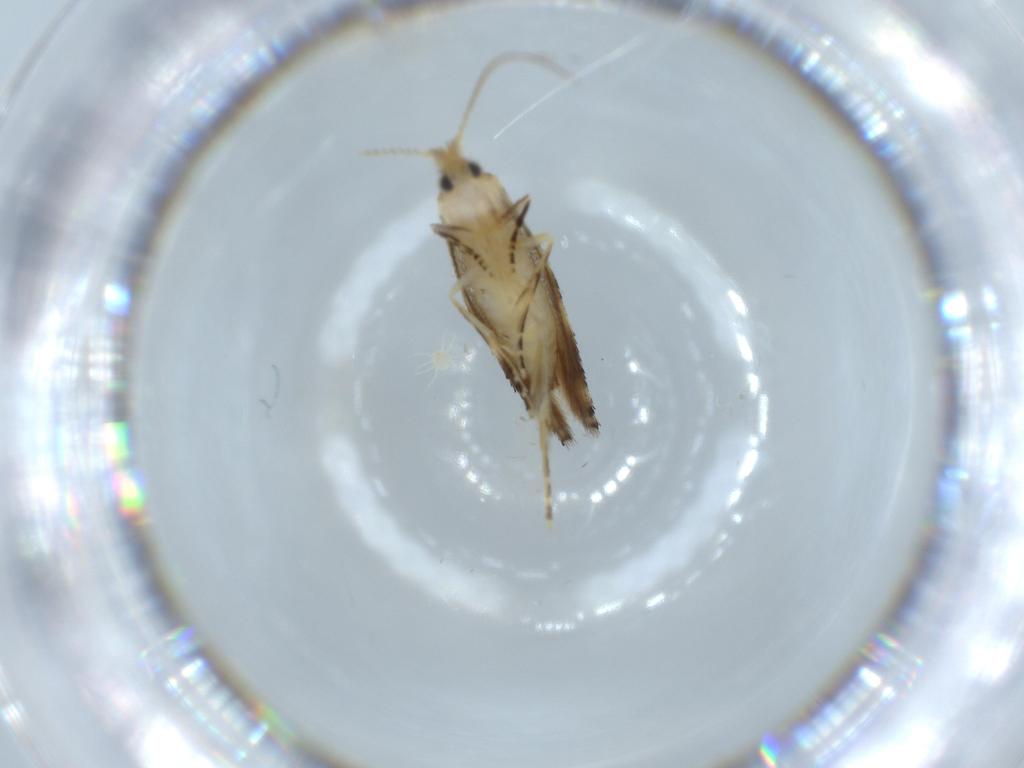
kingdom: Animalia
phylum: Arthropoda
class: Insecta
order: Lepidoptera
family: Bucculatricidae
